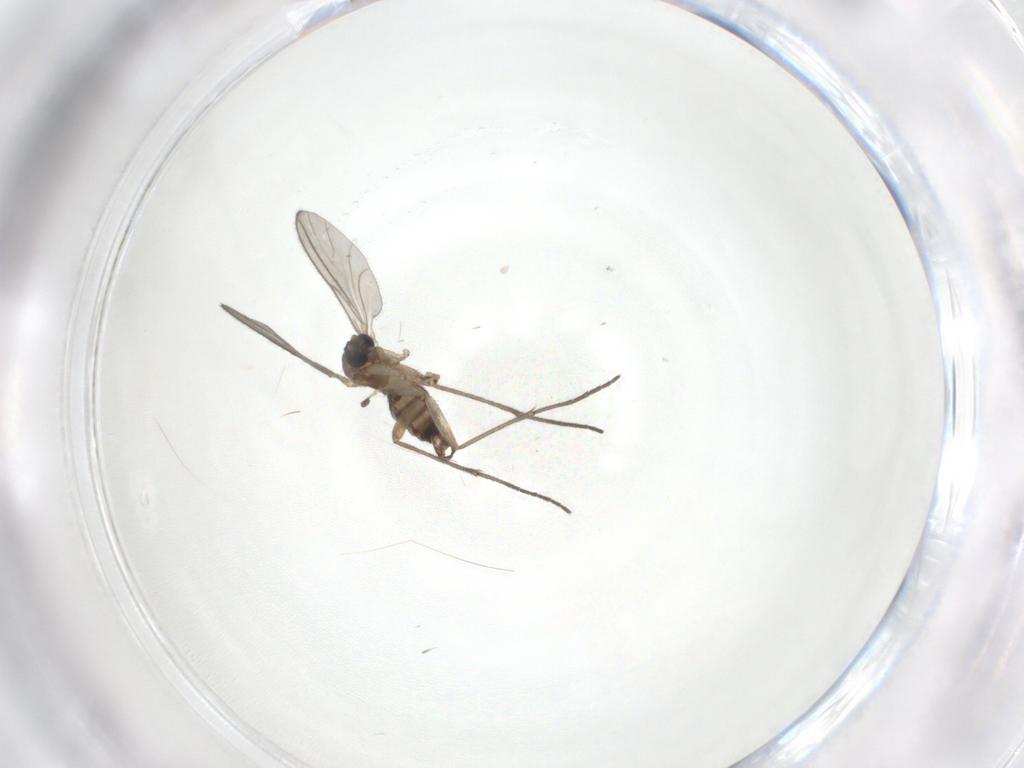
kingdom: Animalia
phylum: Arthropoda
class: Insecta
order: Diptera
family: Sciaridae
